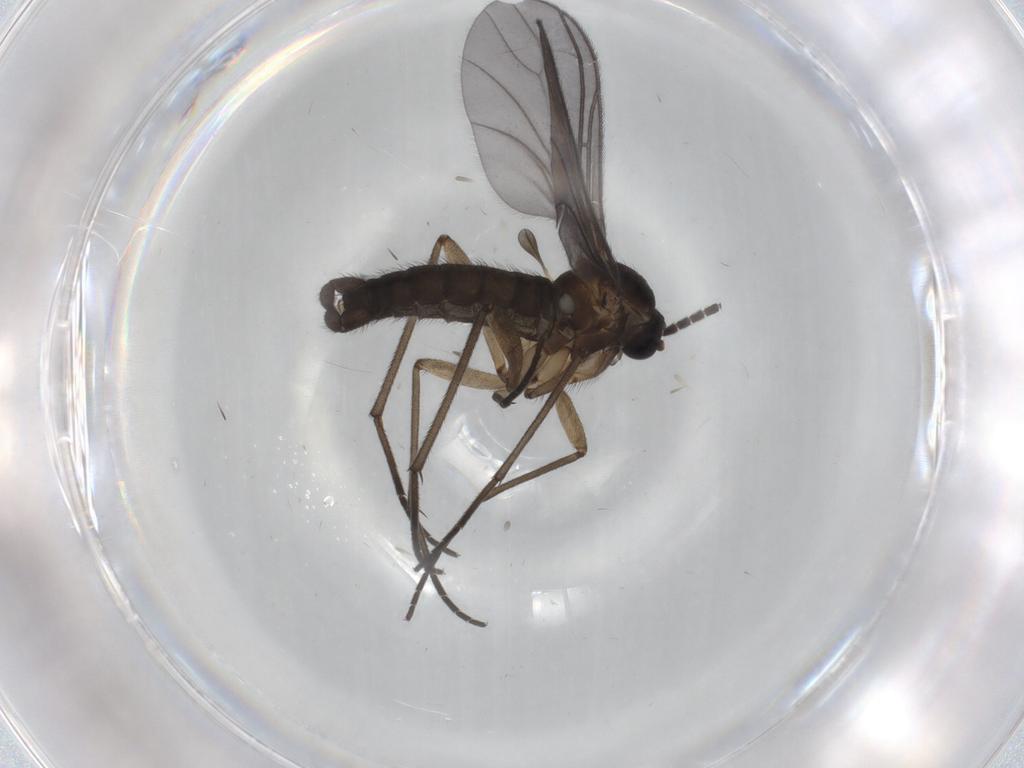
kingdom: Animalia
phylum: Arthropoda
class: Insecta
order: Diptera
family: Sciaridae
